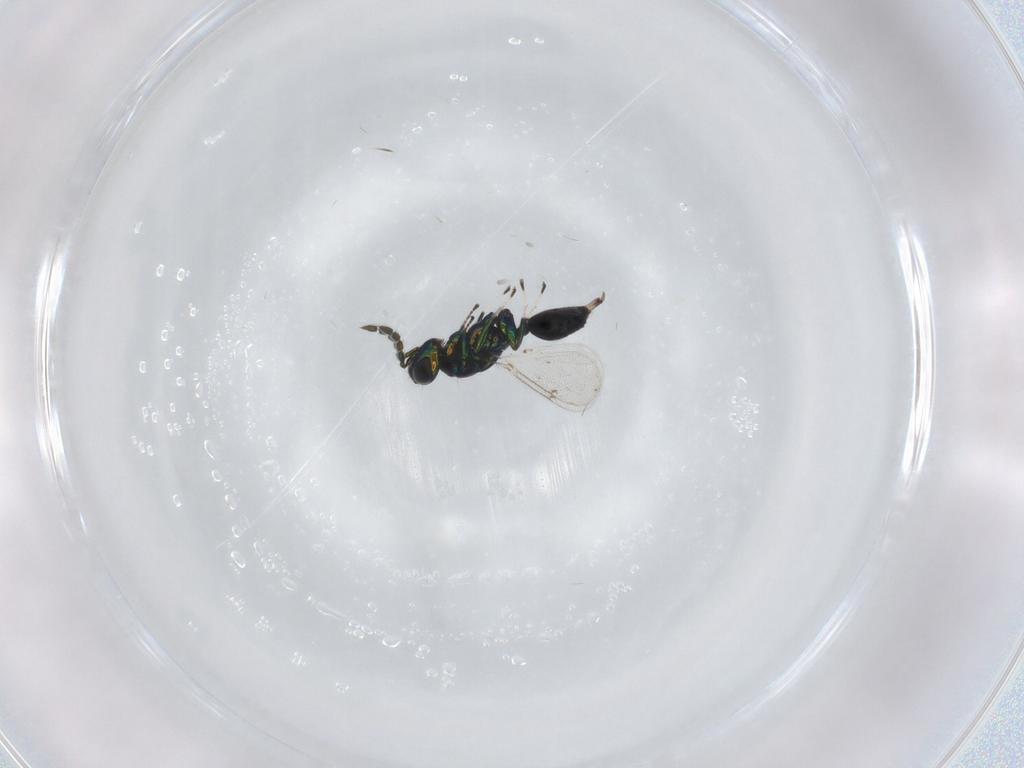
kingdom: Animalia
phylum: Arthropoda
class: Insecta
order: Hymenoptera
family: Eulophidae
